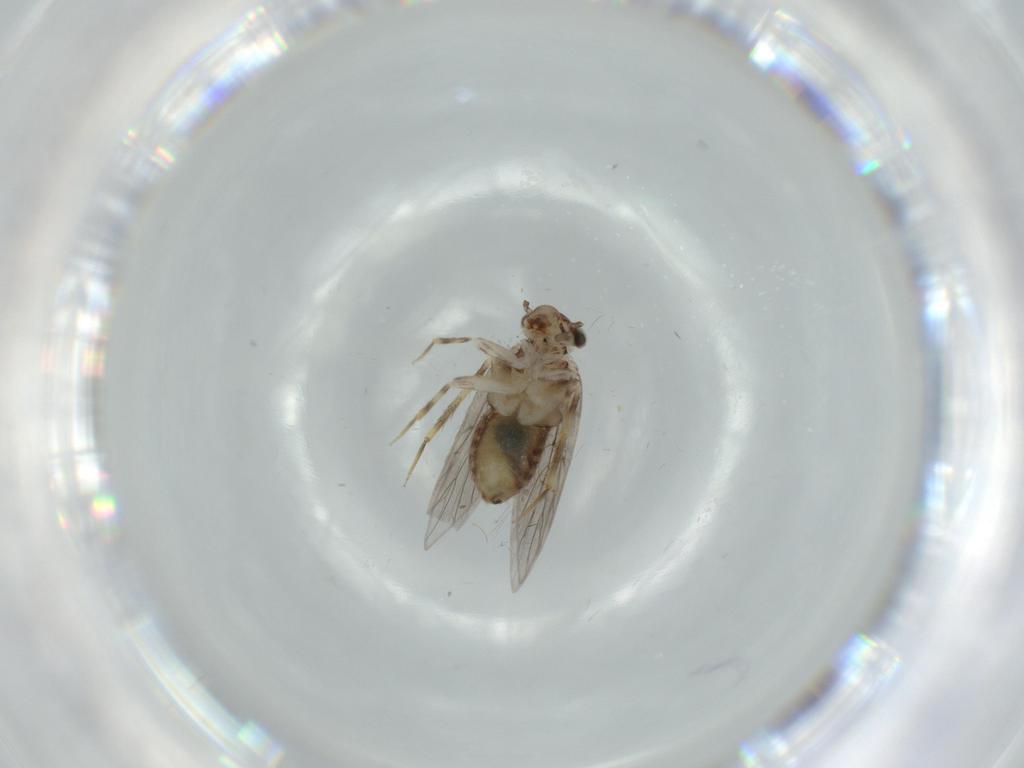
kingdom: Animalia
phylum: Arthropoda
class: Insecta
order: Psocodea
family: Lepidopsocidae
